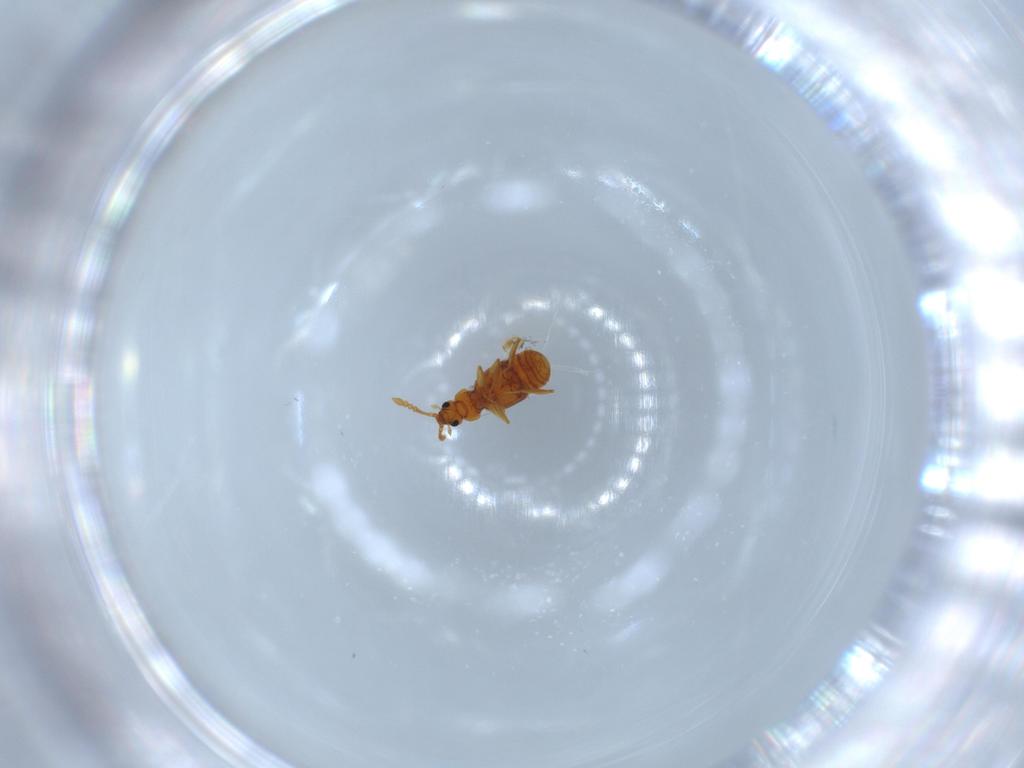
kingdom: Animalia
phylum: Arthropoda
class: Insecta
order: Coleoptera
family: Staphylinidae
